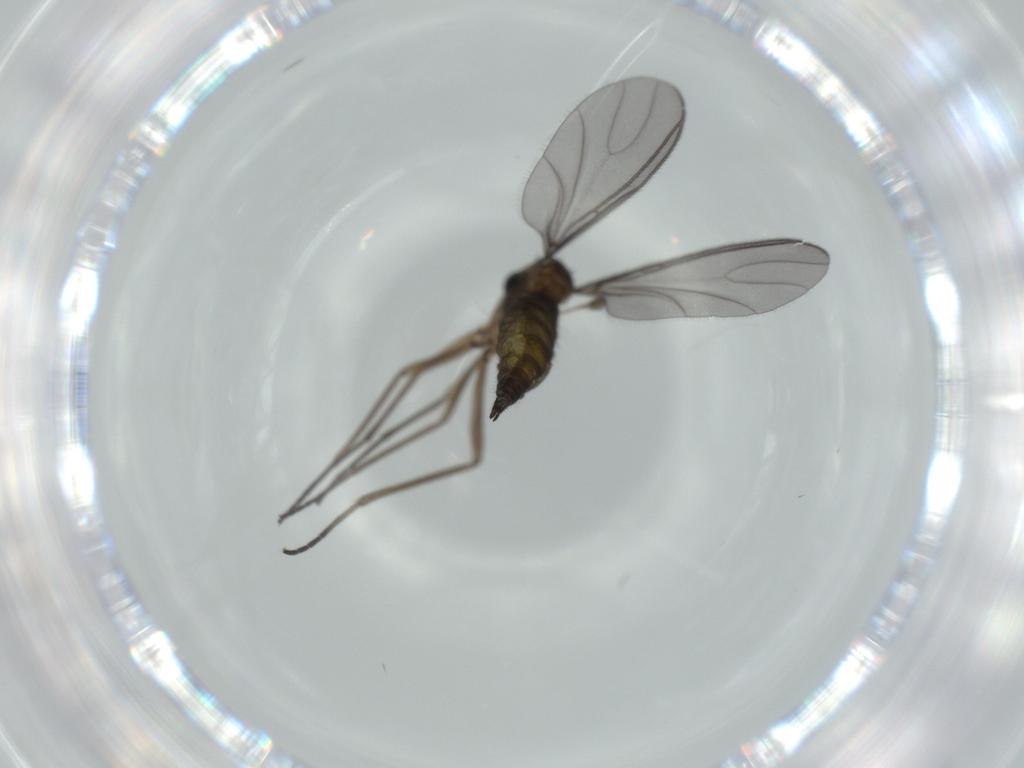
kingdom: Animalia
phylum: Arthropoda
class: Insecta
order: Diptera
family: Sciaridae
